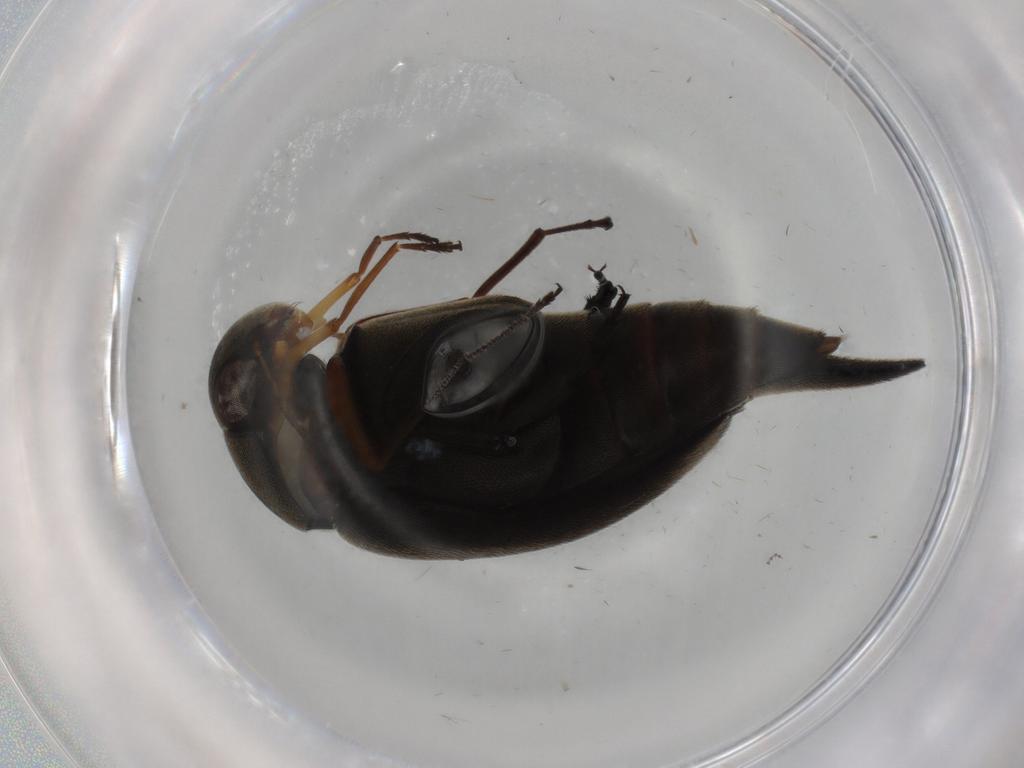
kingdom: Animalia
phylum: Arthropoda
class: Insecta
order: Coleoptera
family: Mordellidae
